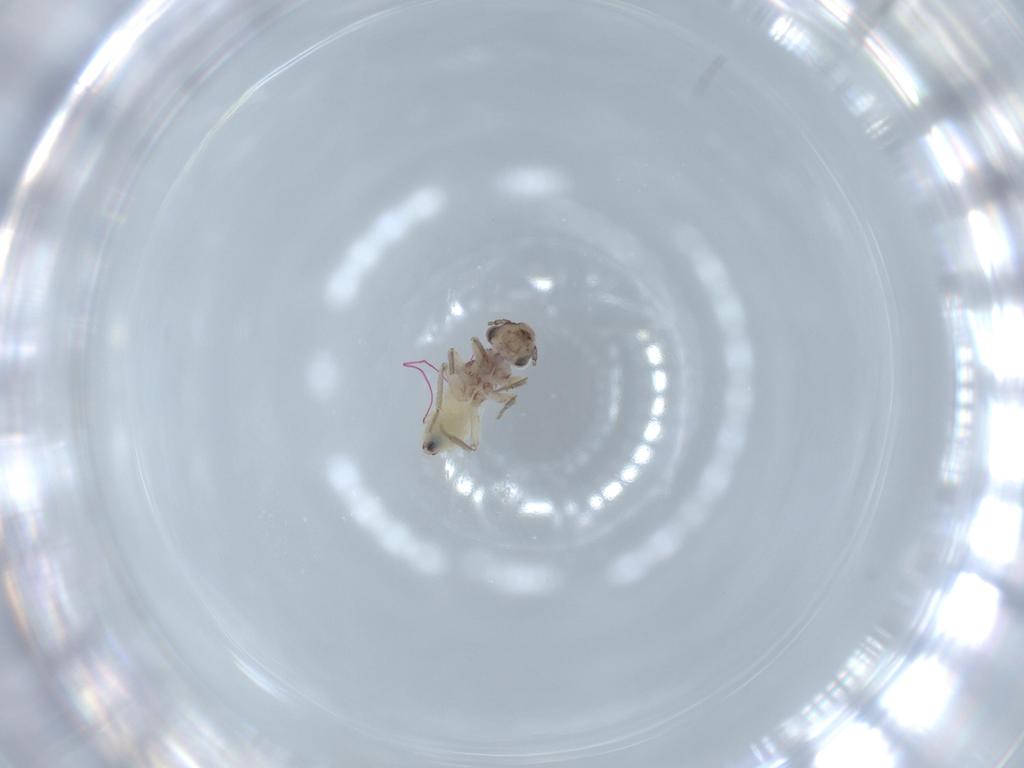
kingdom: Animalia
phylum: Arthropoda
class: Insecta
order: Psocodea
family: Lepidopsocidae
